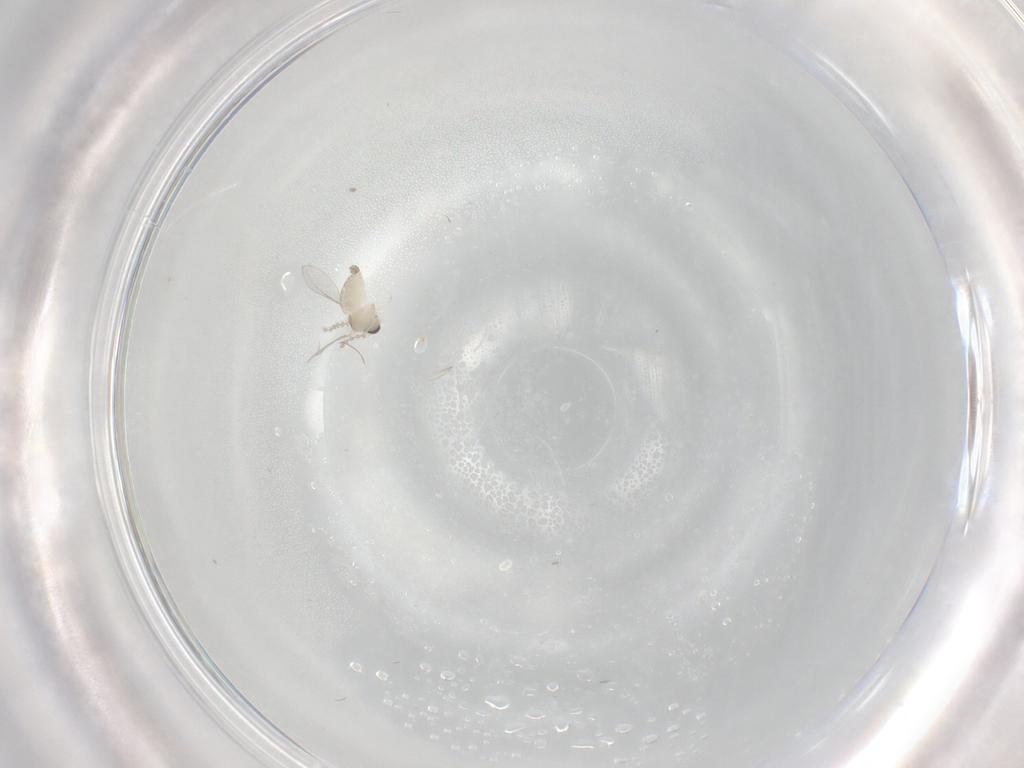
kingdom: Animalia
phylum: Arthropoda
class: Insecta
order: Diptera
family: Cecidomyiidae
